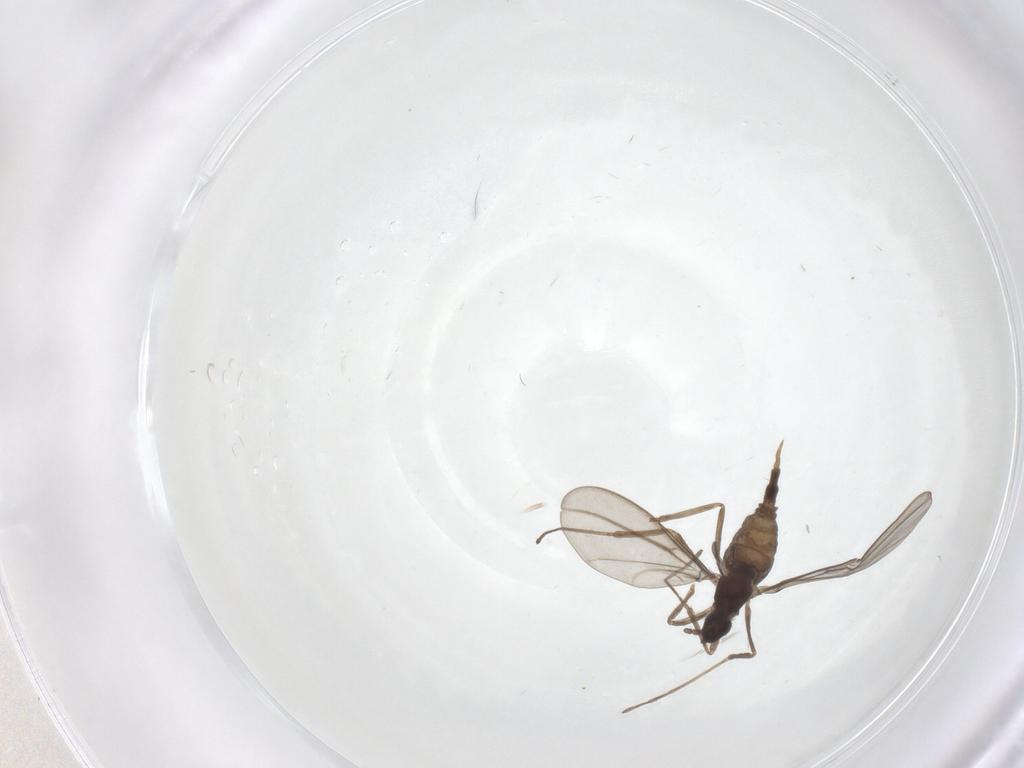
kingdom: Animalia
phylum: Arthropoda
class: Insecta
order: Diptera
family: Cecidomyiidae
